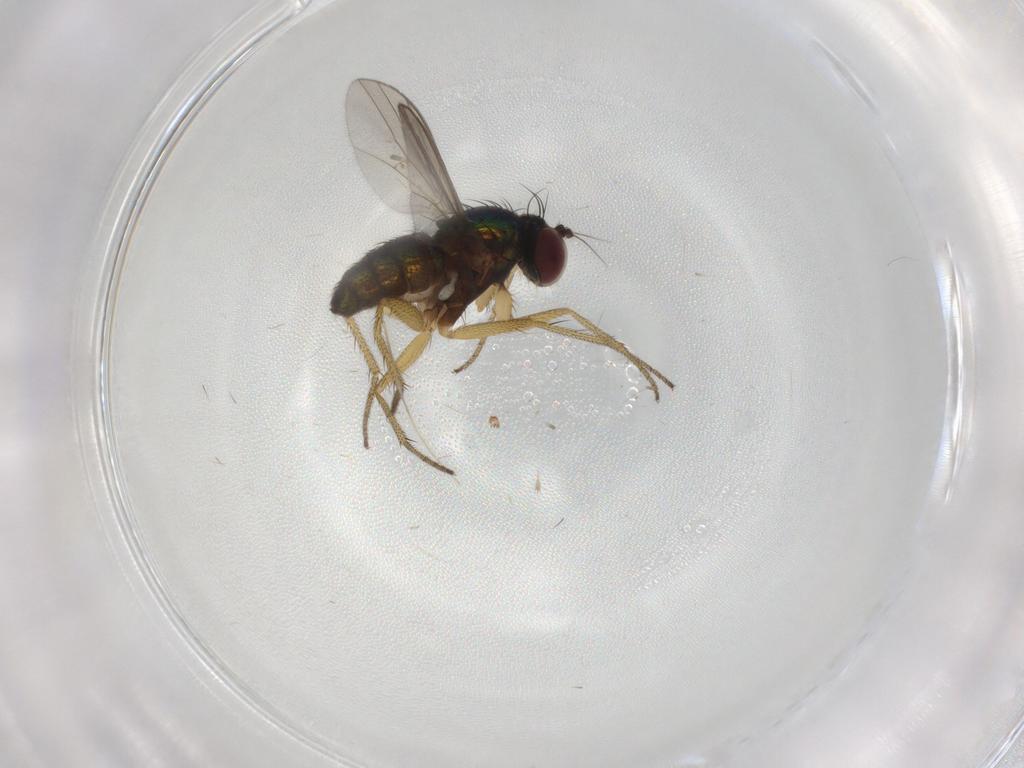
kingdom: Animalia
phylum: Arthropoda
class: Insecta
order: Diptera
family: Dolichopodidae
